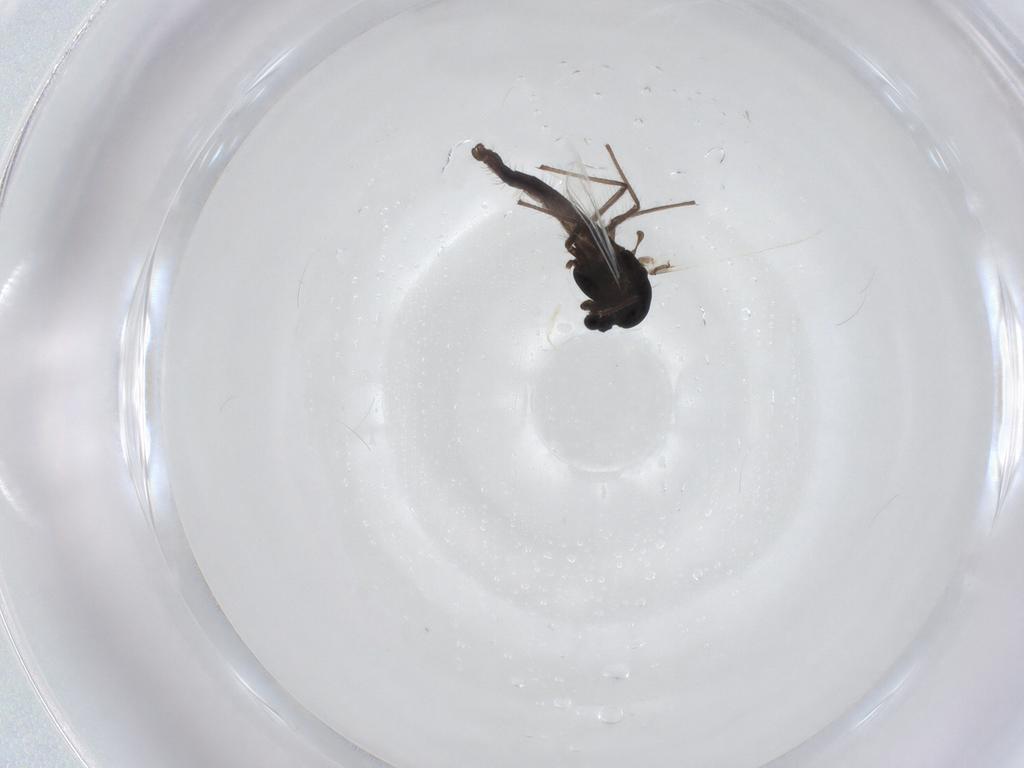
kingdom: Animalia
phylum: Arthropoda
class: Insecta
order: Diptera
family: Chironomidae
